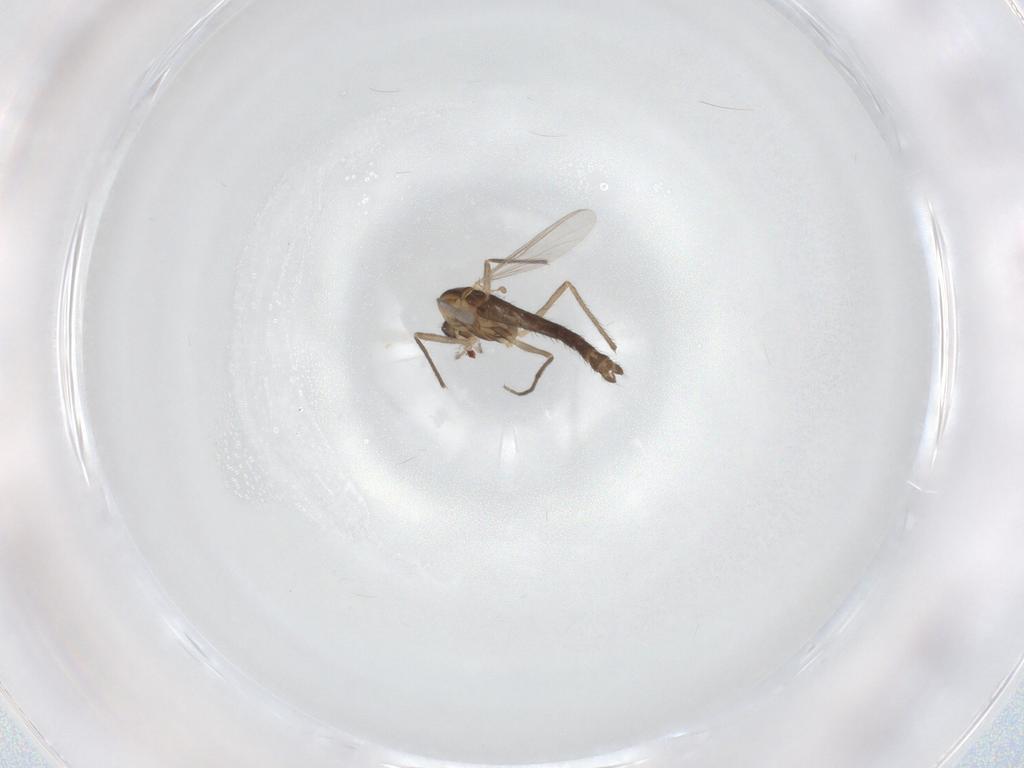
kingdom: Animalia
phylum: Arthropoda
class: Insecta
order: Diptera
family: Chironomidae
